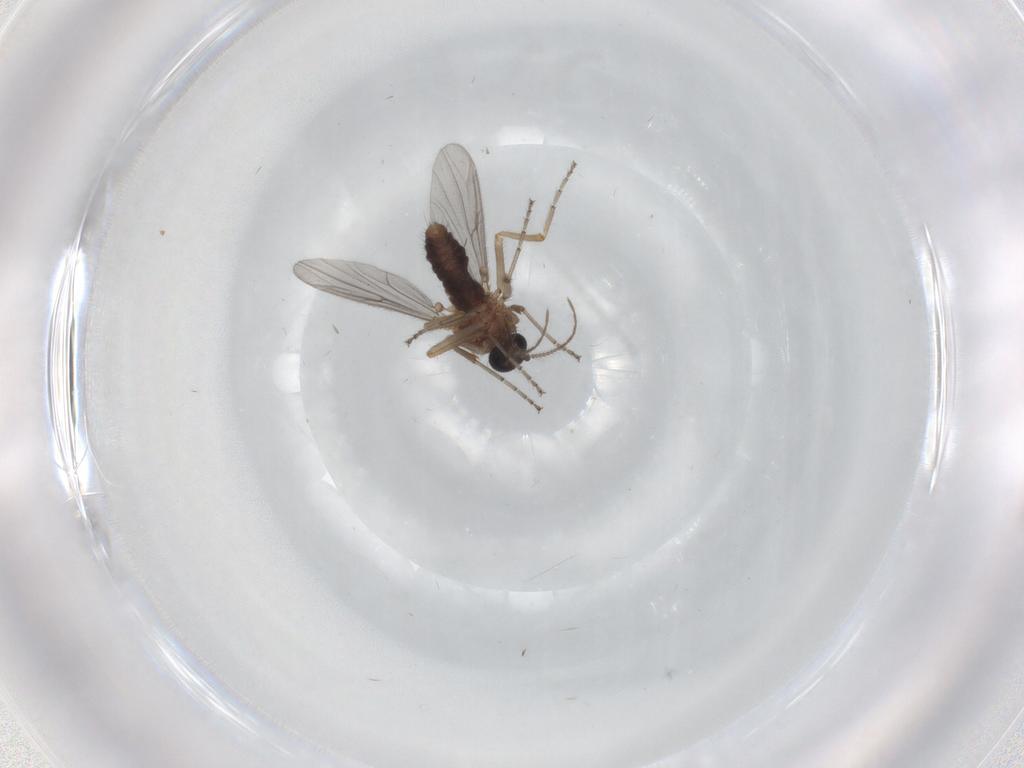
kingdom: Animalia
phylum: Arthropoda
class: Insecta
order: Diptera
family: Ceratopogonidae
